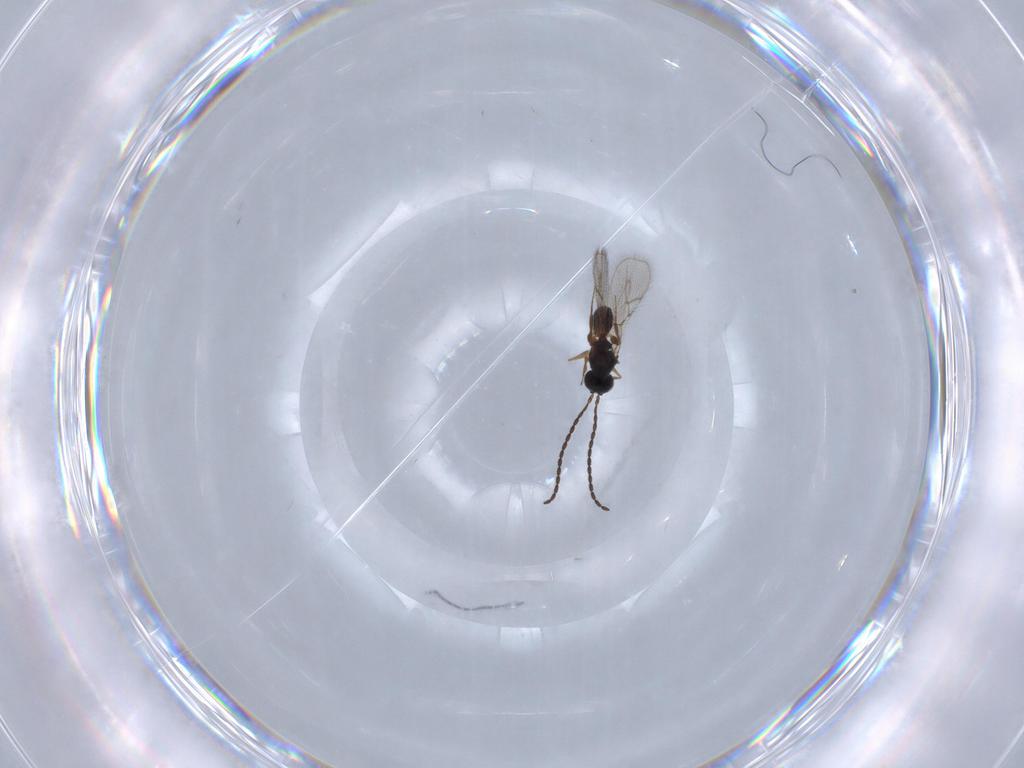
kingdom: Animalia
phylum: Arthropoda
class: Insecta
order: Hymenoptera
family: Figitidae
